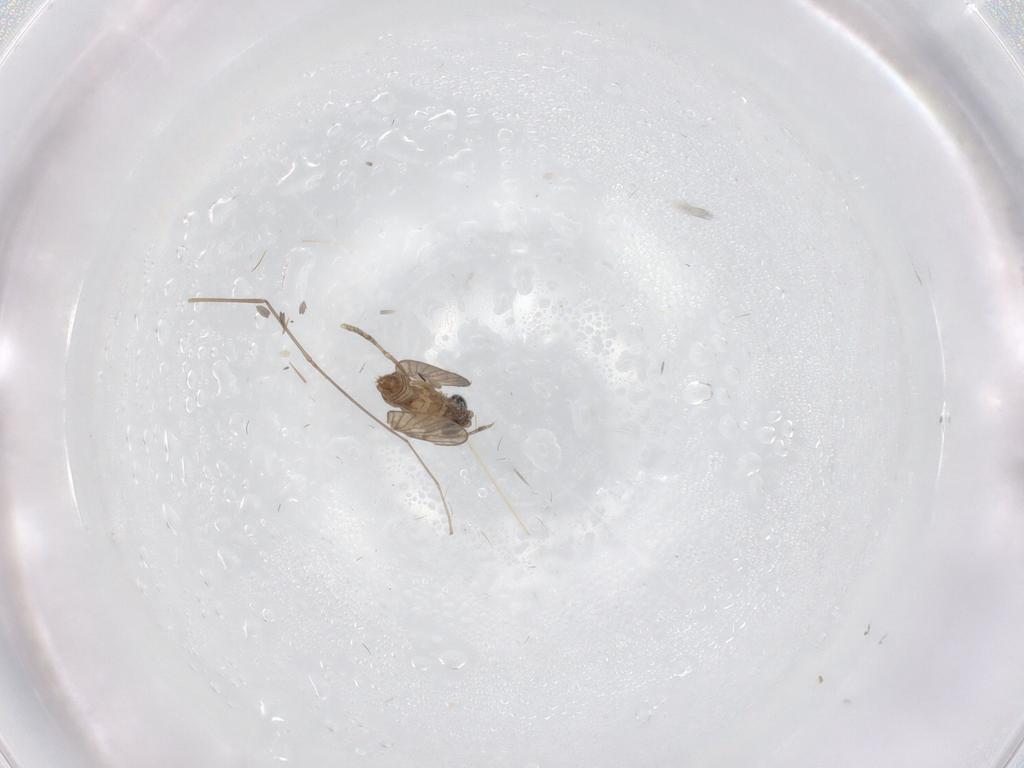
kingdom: Animalia
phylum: Arthropoda
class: Insecta
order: Diptera
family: Psychodidae
